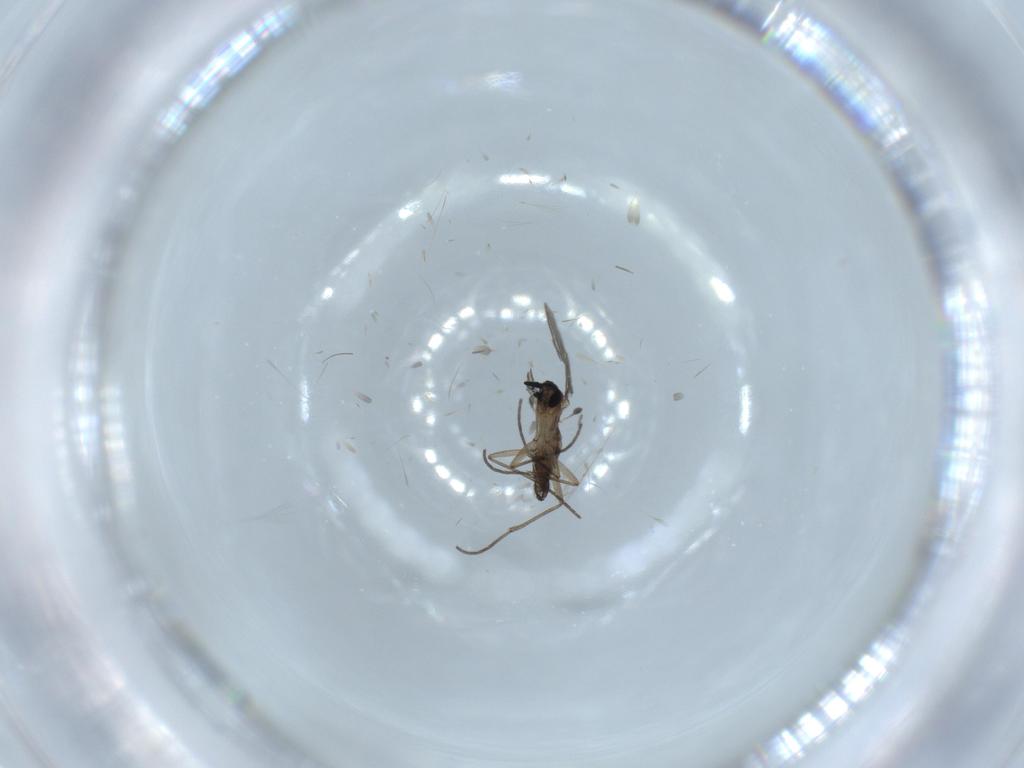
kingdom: Animalia
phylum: Arthropoda
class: Insecta
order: Diptera
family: Sciaridae
